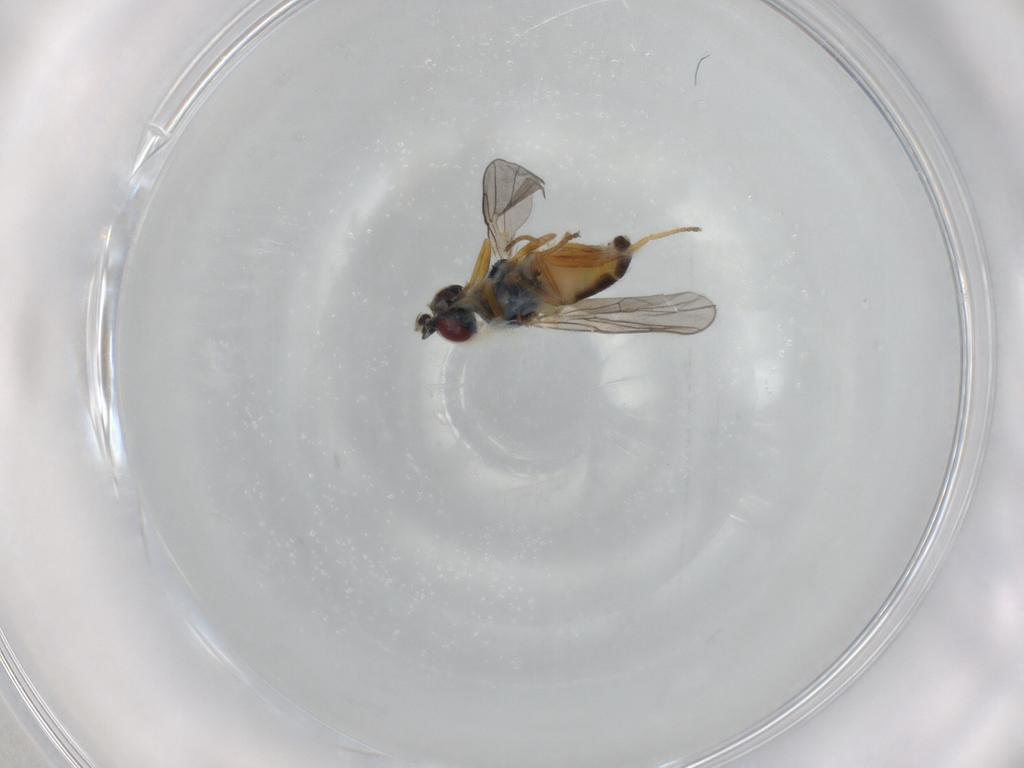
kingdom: Animalia
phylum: Arthropoda
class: Insecta
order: Diptera
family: Chloropidae
